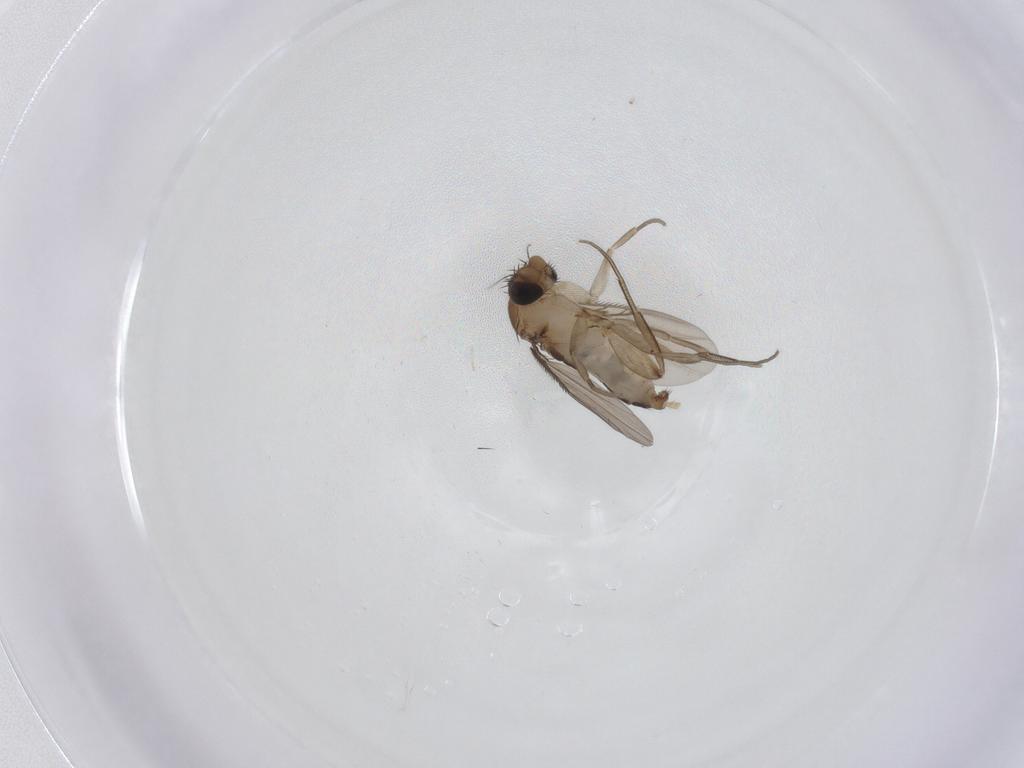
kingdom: Animalia
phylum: Arthropoda
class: Insecta
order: Diptera
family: Phoridae
